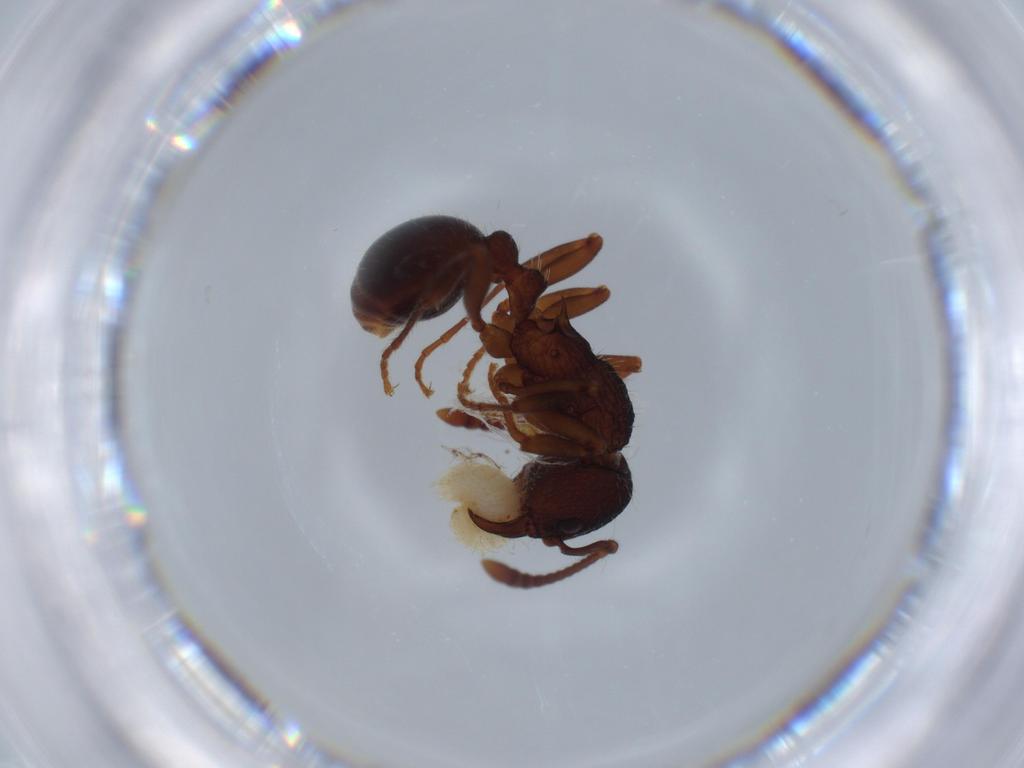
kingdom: Animalia
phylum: Arthropoda
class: Insecta
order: Hymenoptera
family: Formicidae
